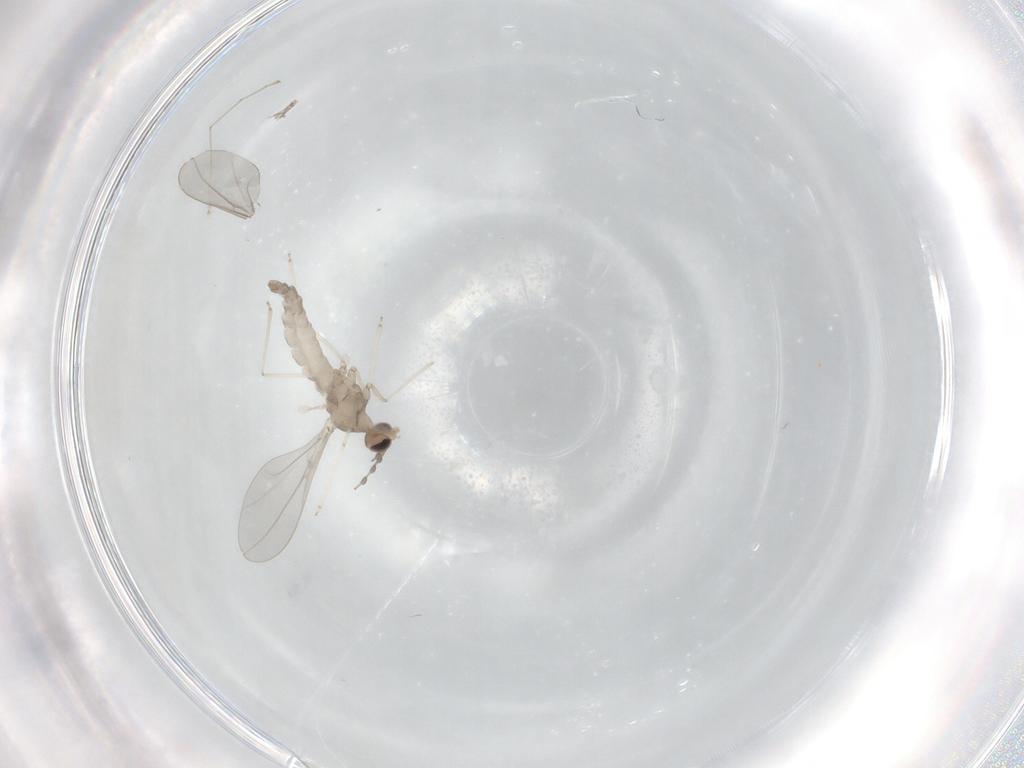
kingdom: Animalia
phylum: Arthropoda
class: Insecta
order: Diptera
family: Cecidomyiidae
